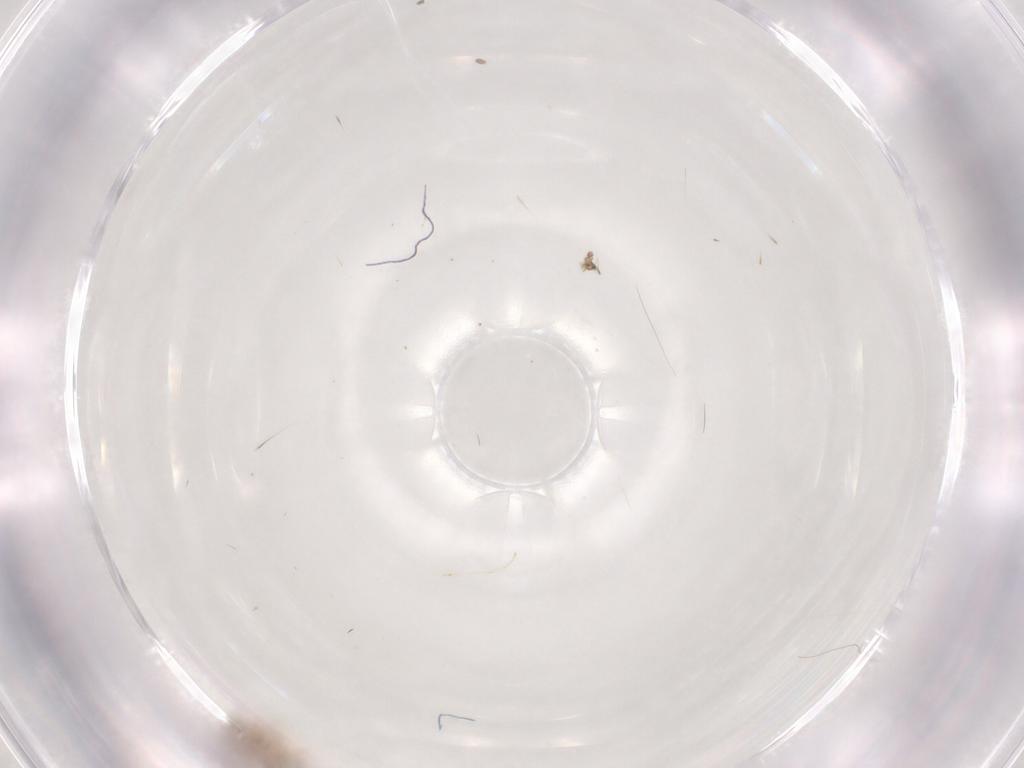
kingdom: Animalia
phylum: Arthropoda
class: Insecta
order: Diptera
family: Cecidomyiidae
